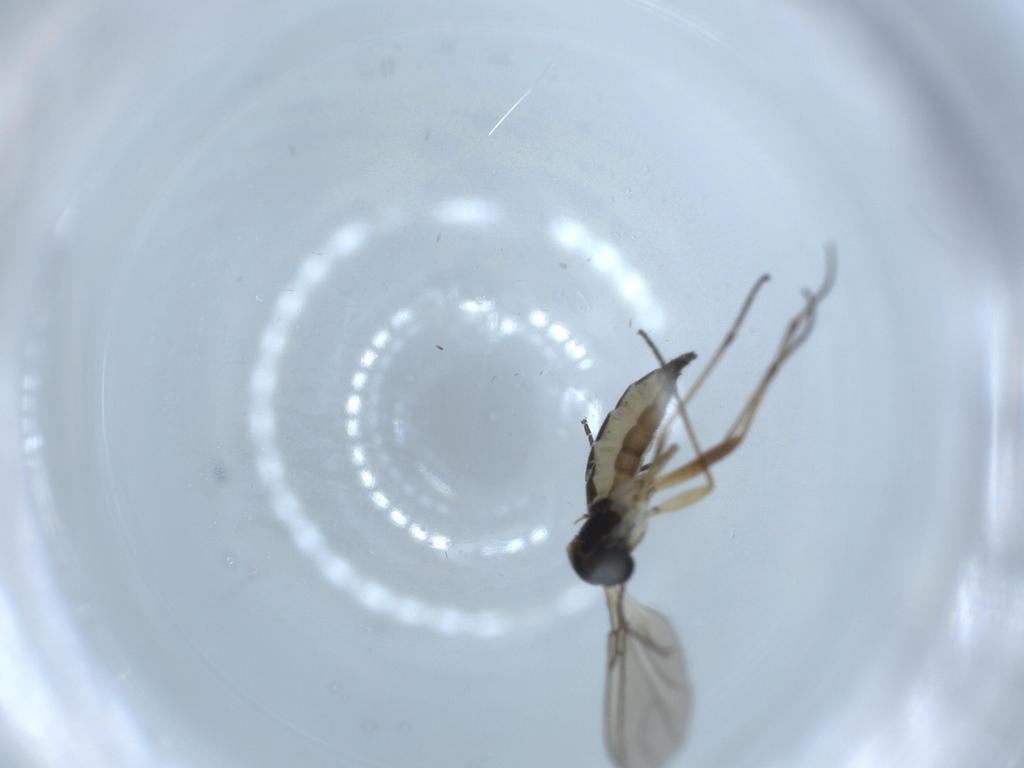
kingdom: Animalia
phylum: Arthropoda
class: Insecta
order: Diptera
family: Sciaridae
